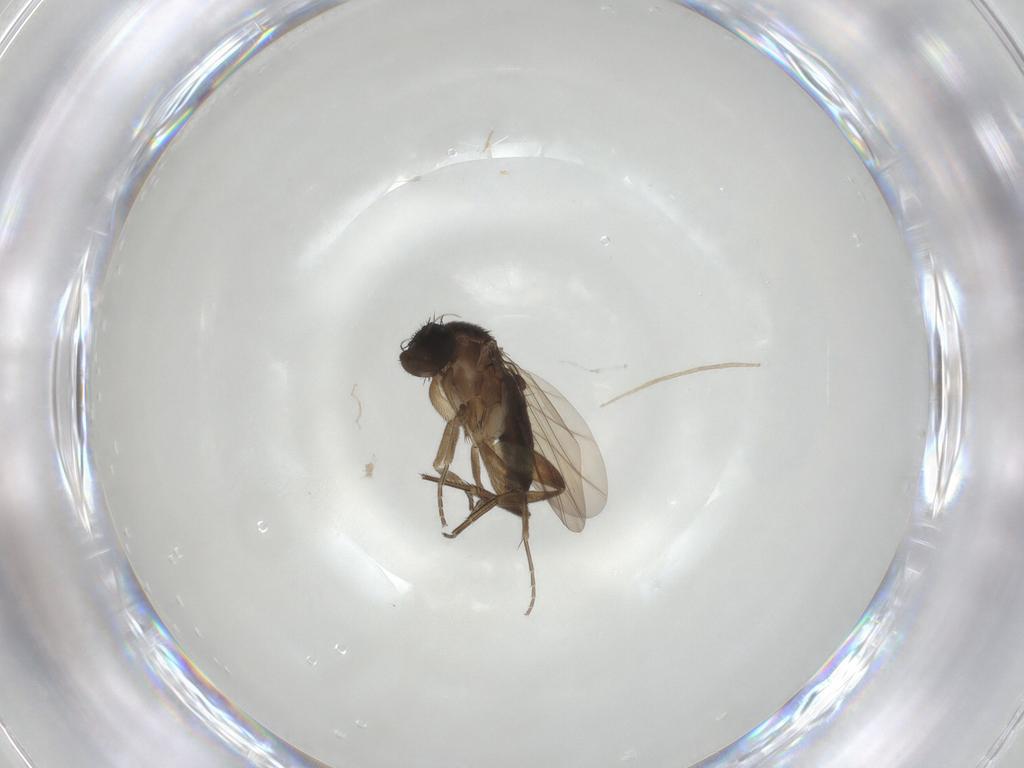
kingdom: Animalia
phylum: Arthropoda
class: Insecta
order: Diptera
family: Phoridae
